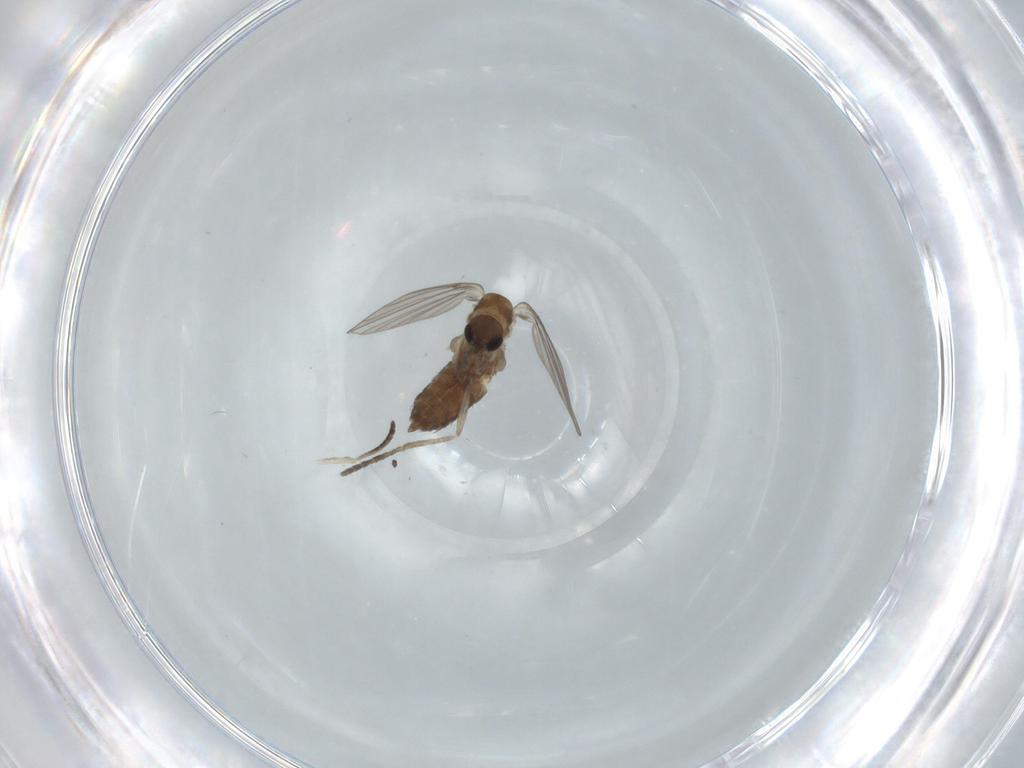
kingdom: Animalia
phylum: Arthropoda
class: Insecta
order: Diptera
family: Psychodidae
